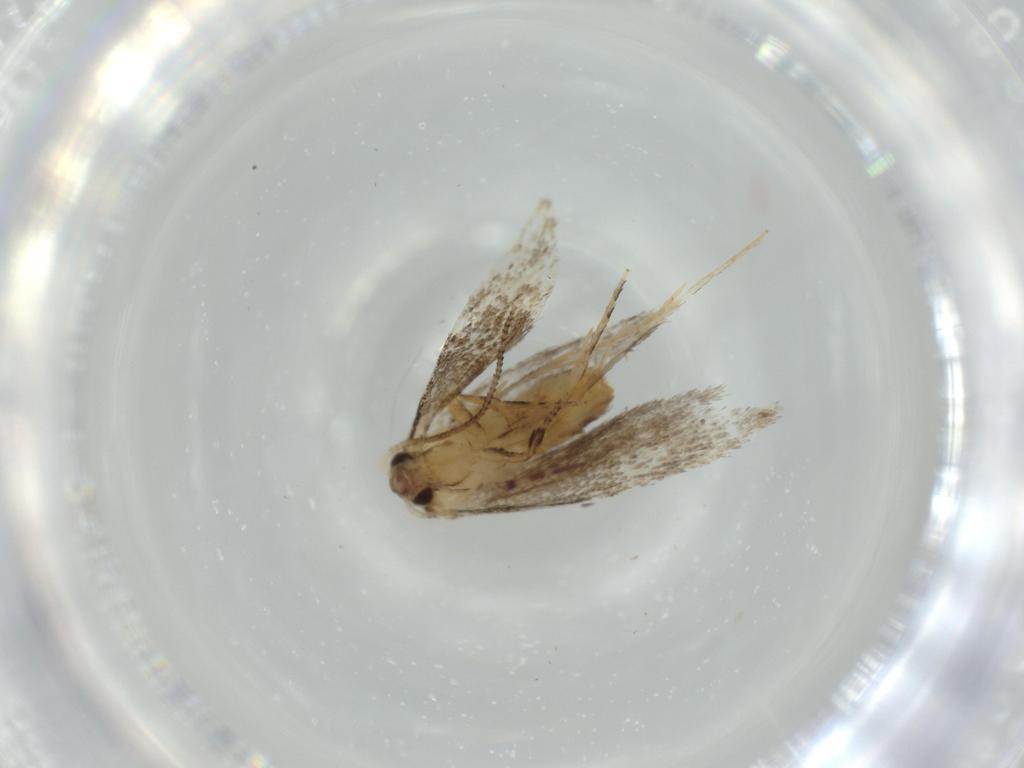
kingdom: Animalia
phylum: Arthropoda
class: Insecta
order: Lepidoptera
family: Tineidae
